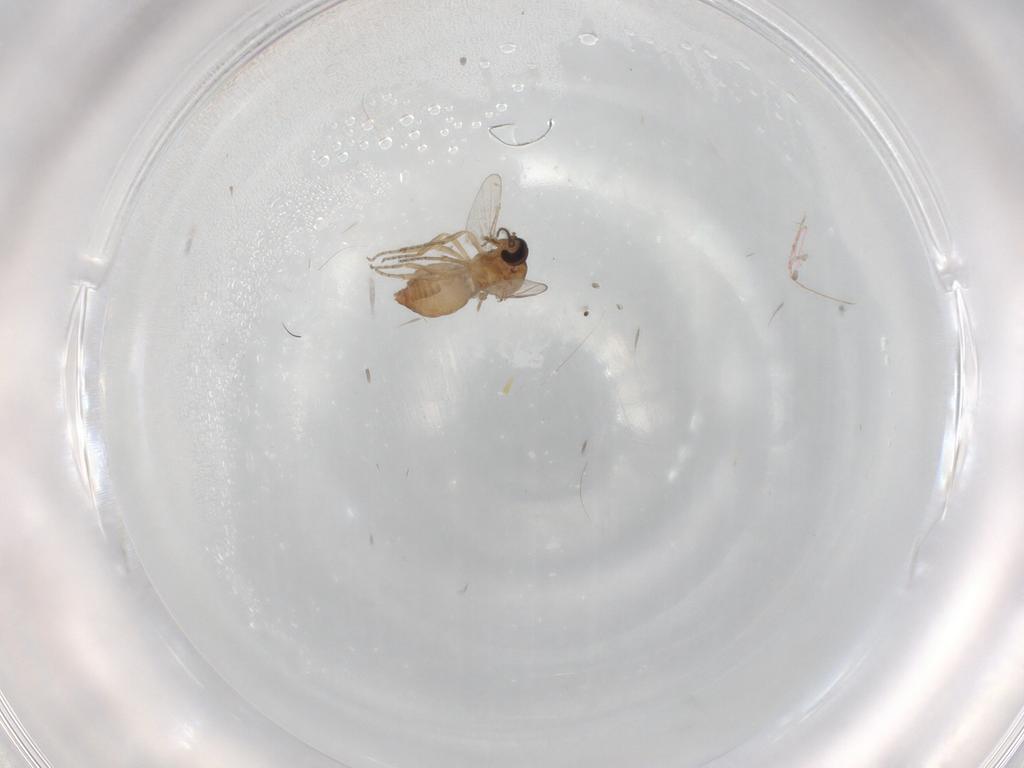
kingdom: Animalia
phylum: Arthropoda
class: Insecta
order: Diptera
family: Ceratopogonidae
